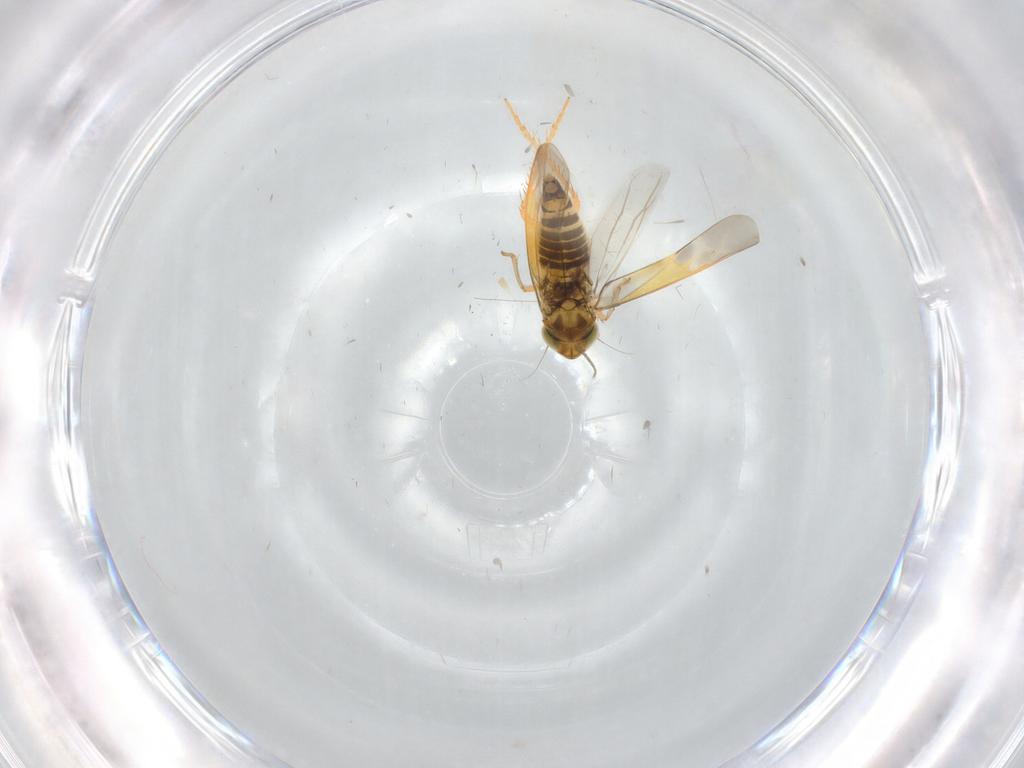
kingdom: Animalia
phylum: Arthropoda
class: Insecta
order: Hemiptera
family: Cicadellidae
